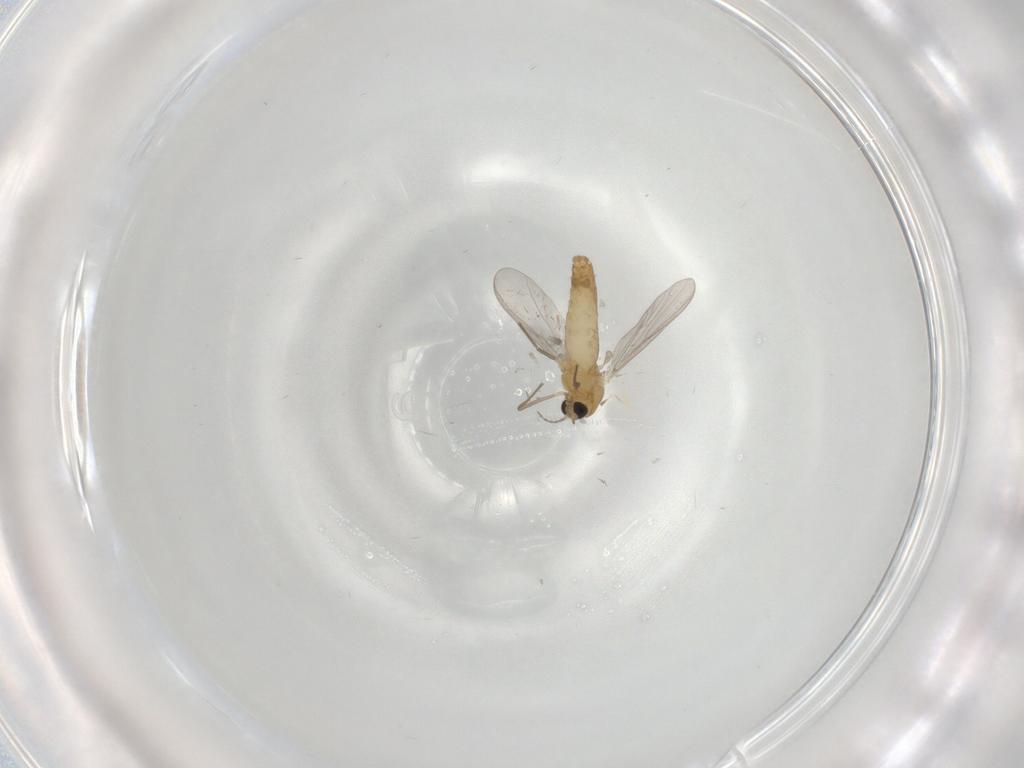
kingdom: Animalia
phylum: Arthropoda
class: Insecta
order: Diptera
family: Chironomidae
